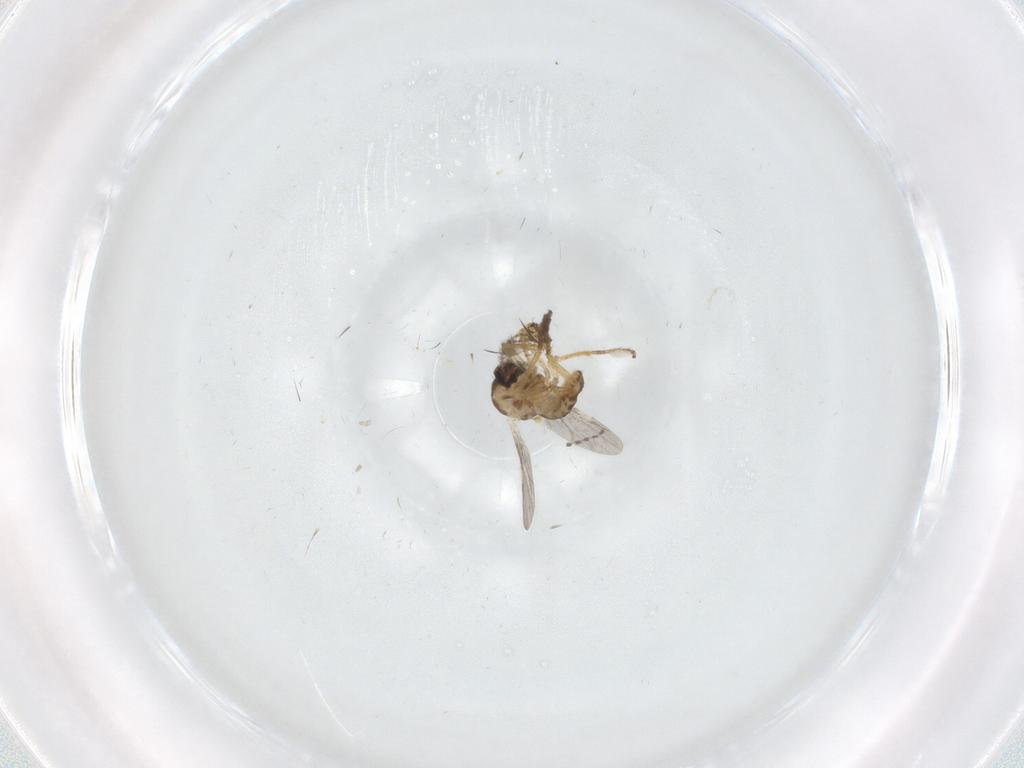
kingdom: Animalia
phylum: Arthropoda
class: Insecta
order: Diptera
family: Ceratopogonidae
